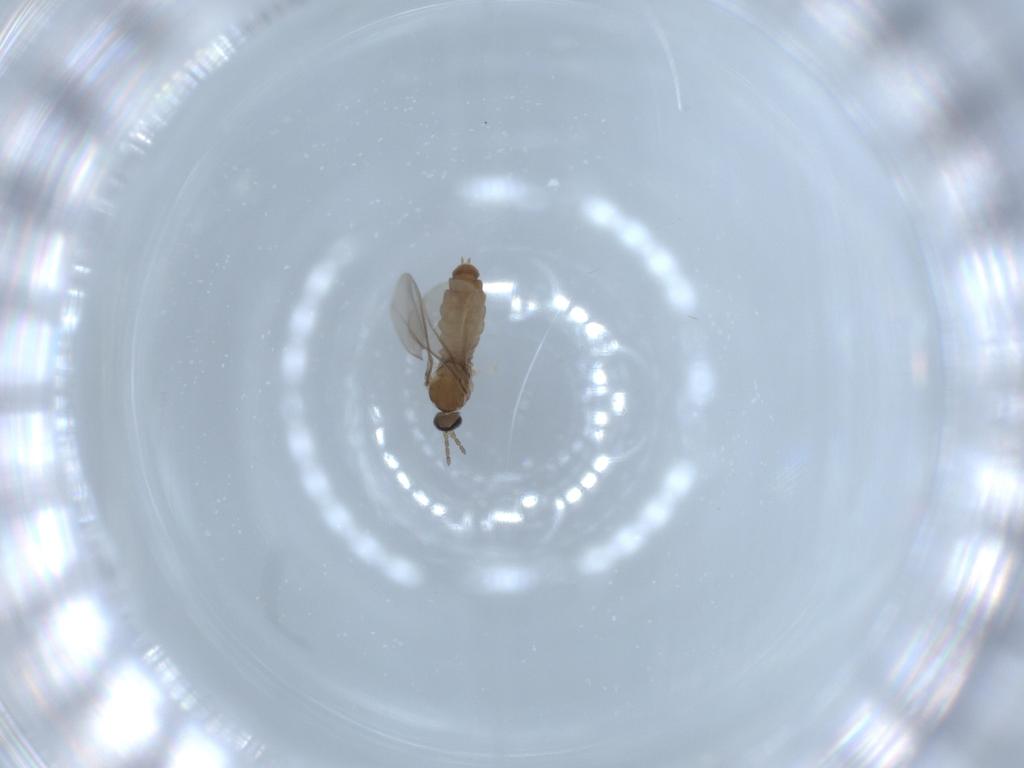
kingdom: Animalia
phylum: Arthropoda
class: Insecta
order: Diptera
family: Cecidomyiidae
